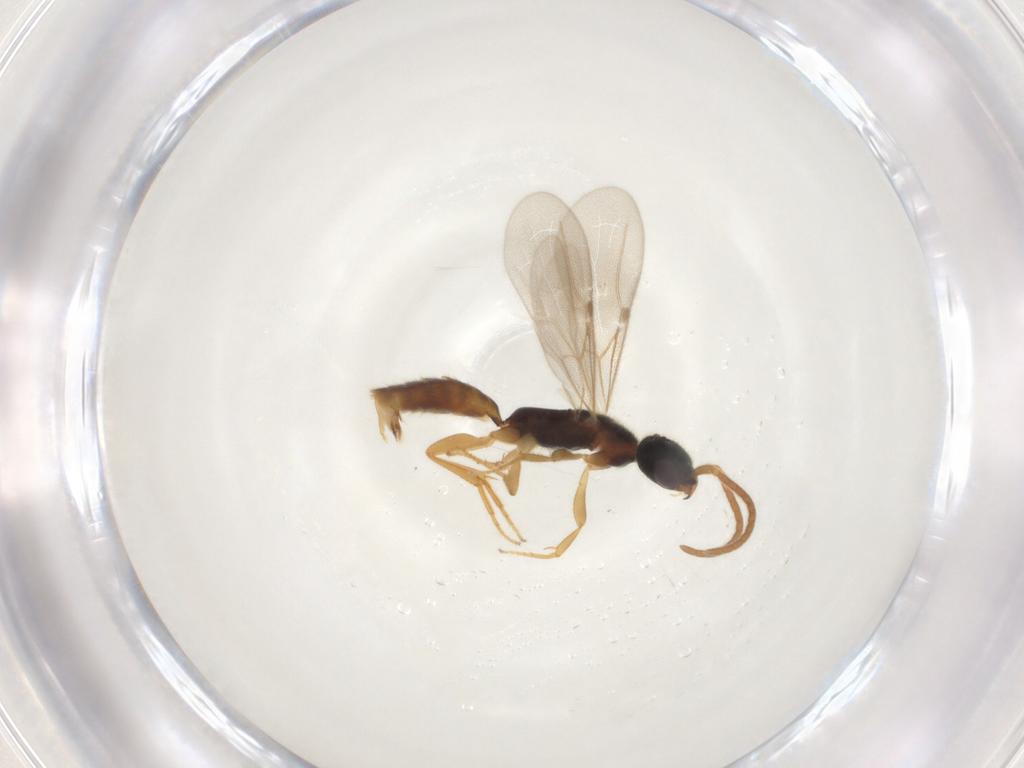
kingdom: Animalia
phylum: Arthropoda
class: Insecta
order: Hymenoptera
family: Bethylidae
